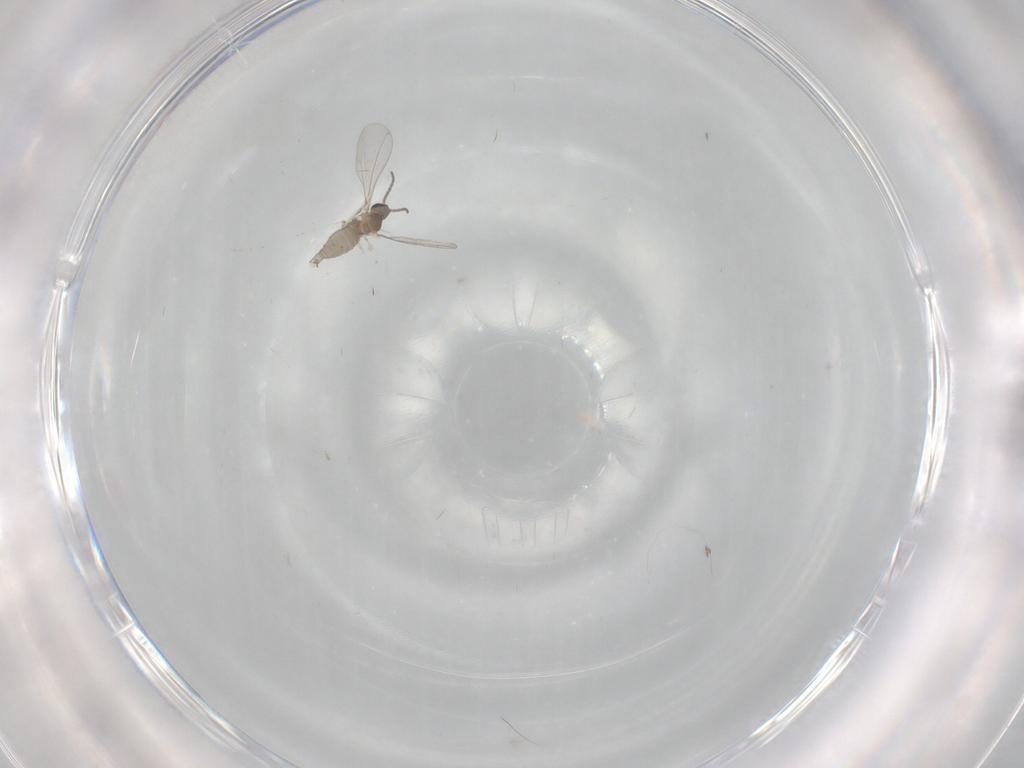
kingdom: Animalia
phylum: Arthropoda
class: Insecta
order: Diptera
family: Cecidomyiidae
